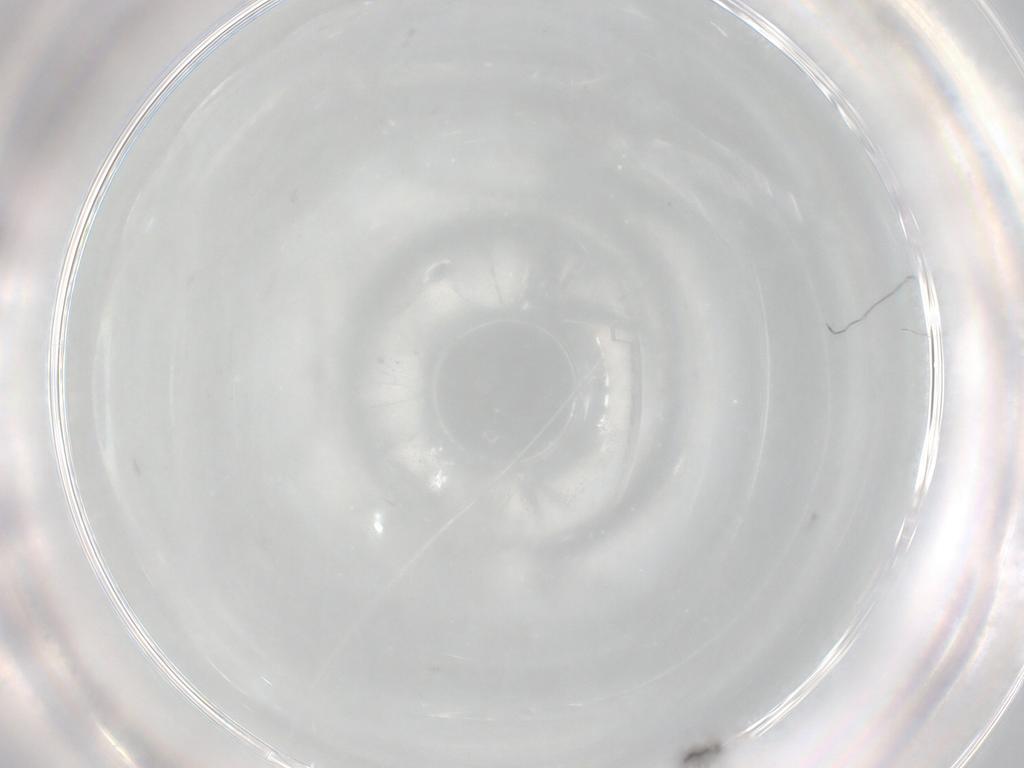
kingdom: Animalia
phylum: Arthropoda
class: Insecta
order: Hymenoptera
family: Scelionidae
